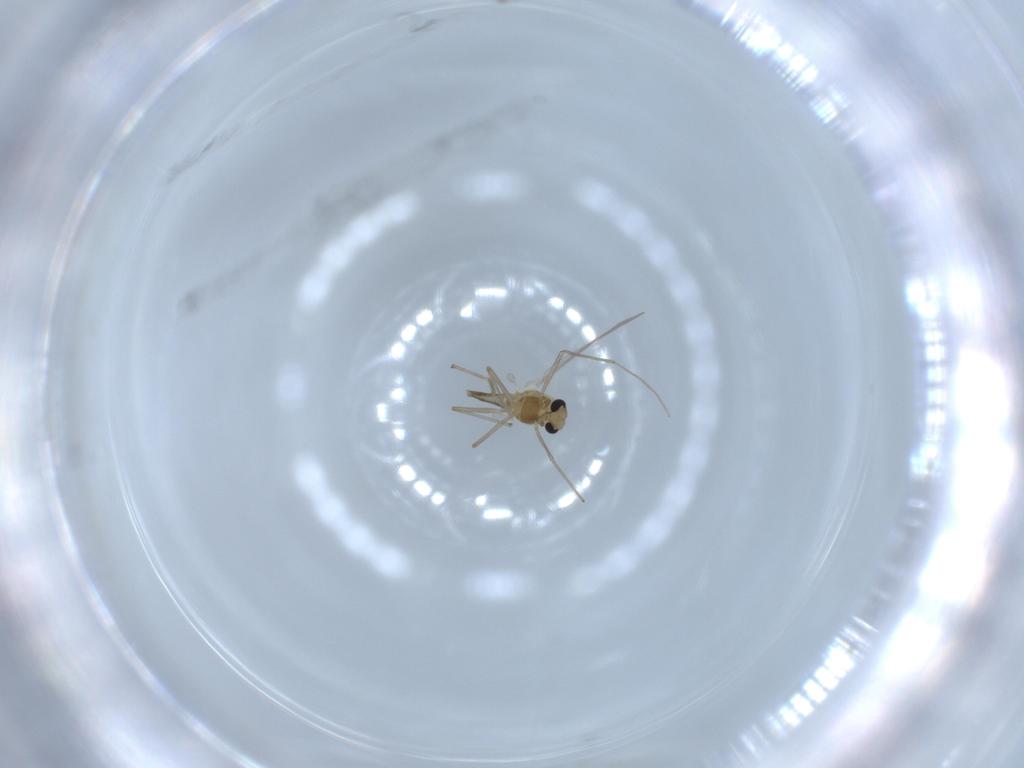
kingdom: Animalia
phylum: Arthropoda
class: Insecta
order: Diptera
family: Chironomidae
